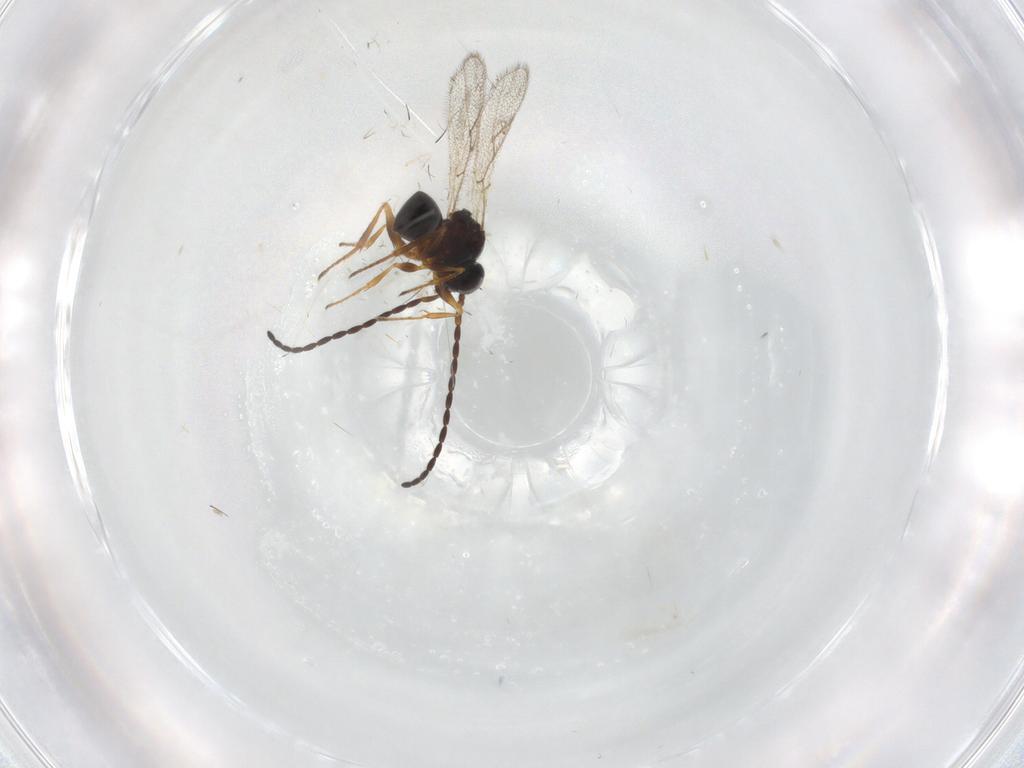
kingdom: Animalia
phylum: Arthropoda
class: Insecta
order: Hymenoptera
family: Figitidae
